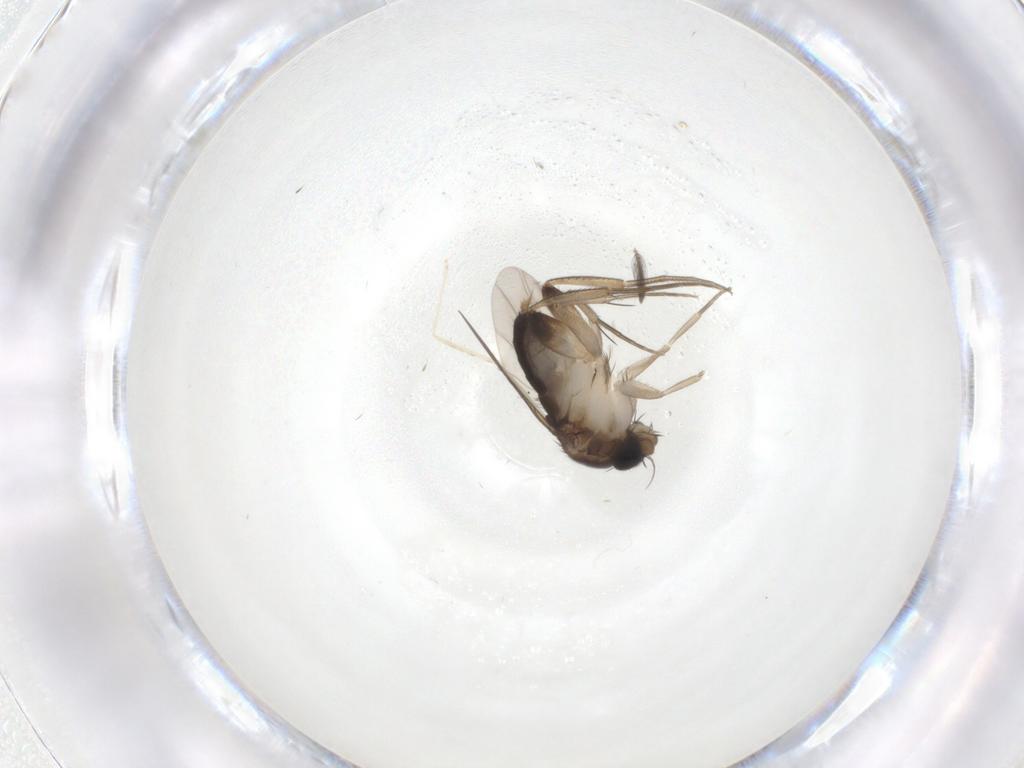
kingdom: Animalia
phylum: Arthropoda
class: Insecta
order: Diptera
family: Phoridae
